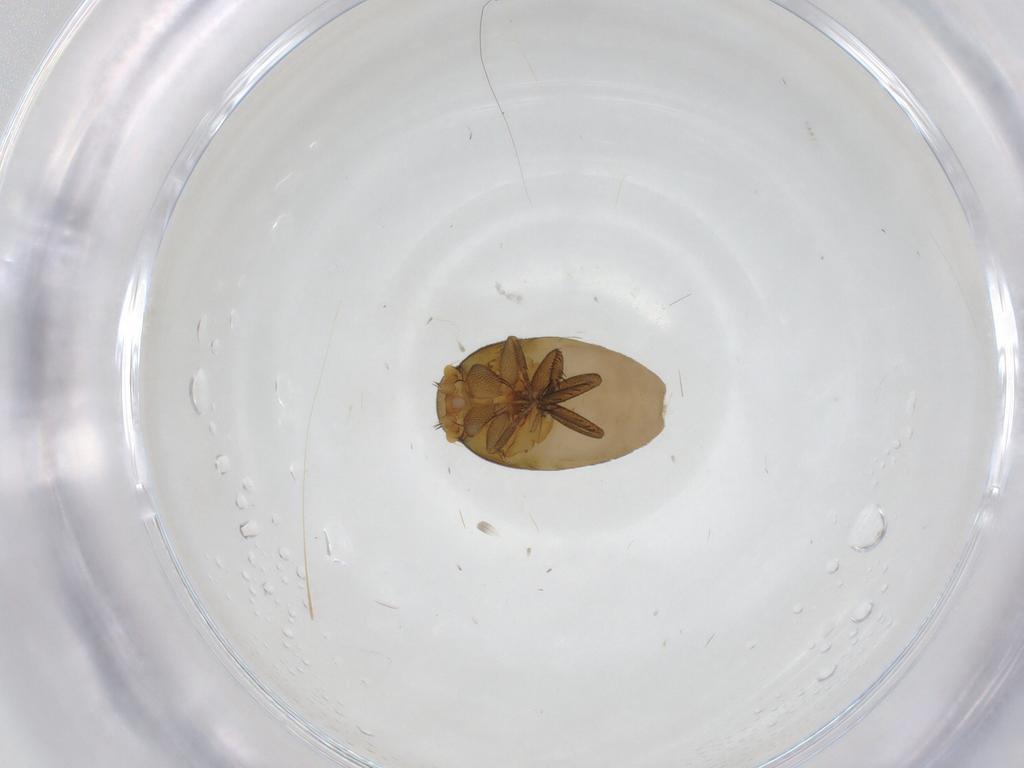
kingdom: Animalia
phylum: Arthropoda
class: Insecta
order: Diptera
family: Phoridae
